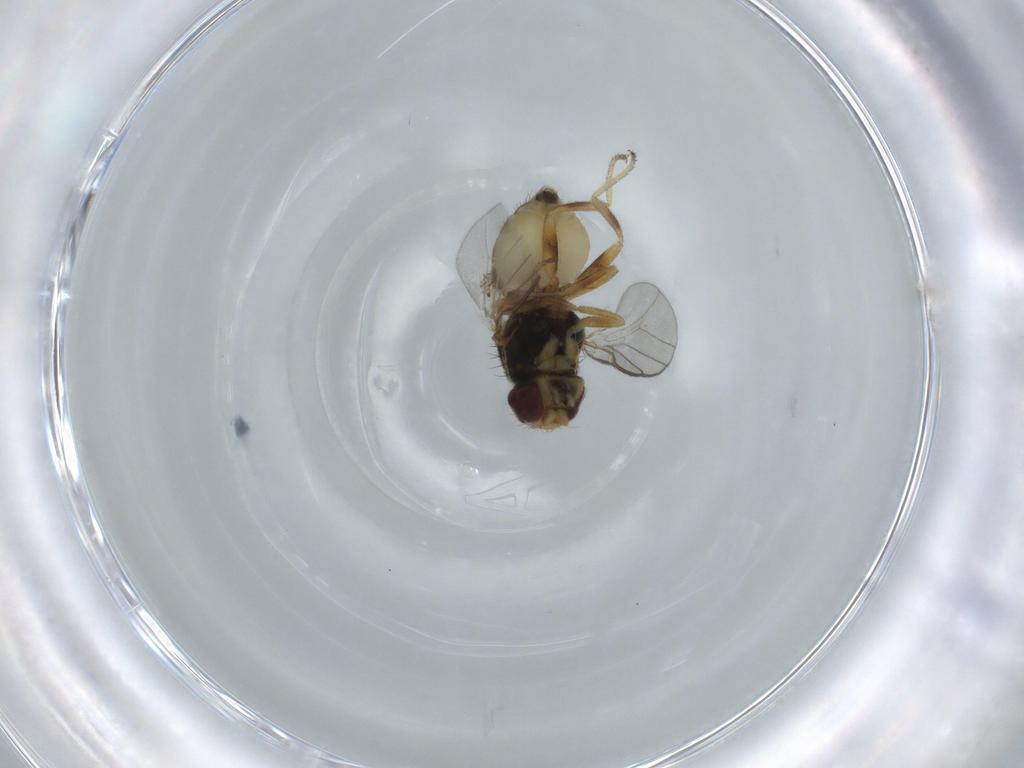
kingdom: Animalia
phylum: Arthropoda
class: Insecta
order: Diptera
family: Chloropidae
